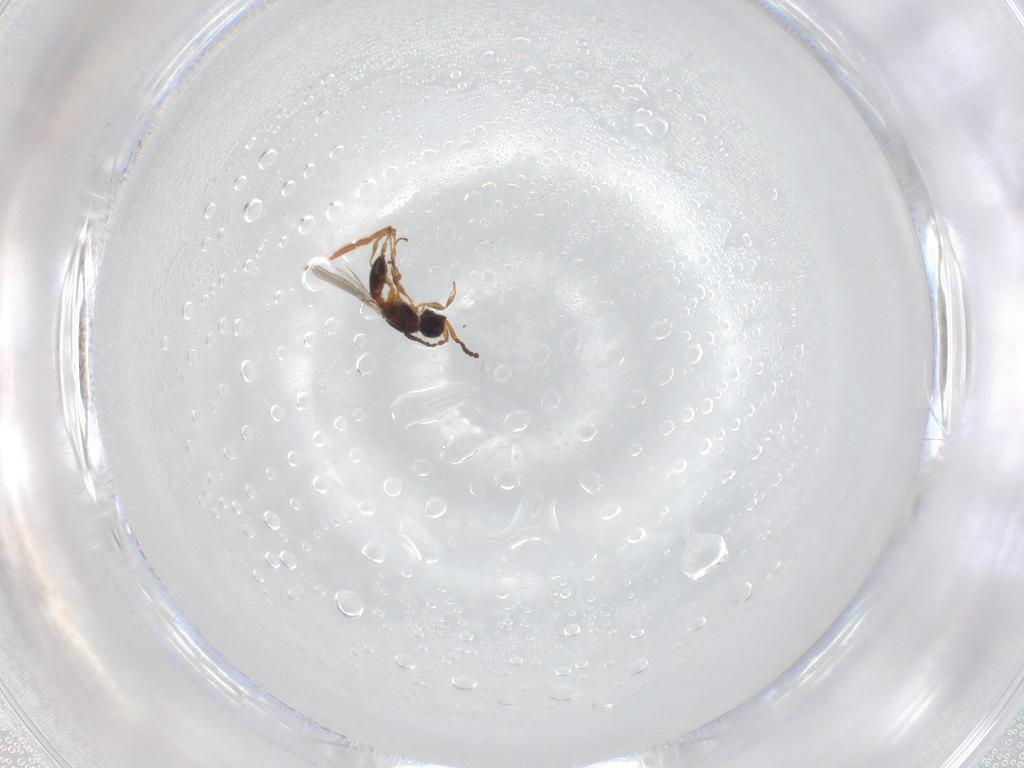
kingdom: Animalia
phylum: Arthropoda
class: Insecta
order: Hymenoptera
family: Diapriidae
